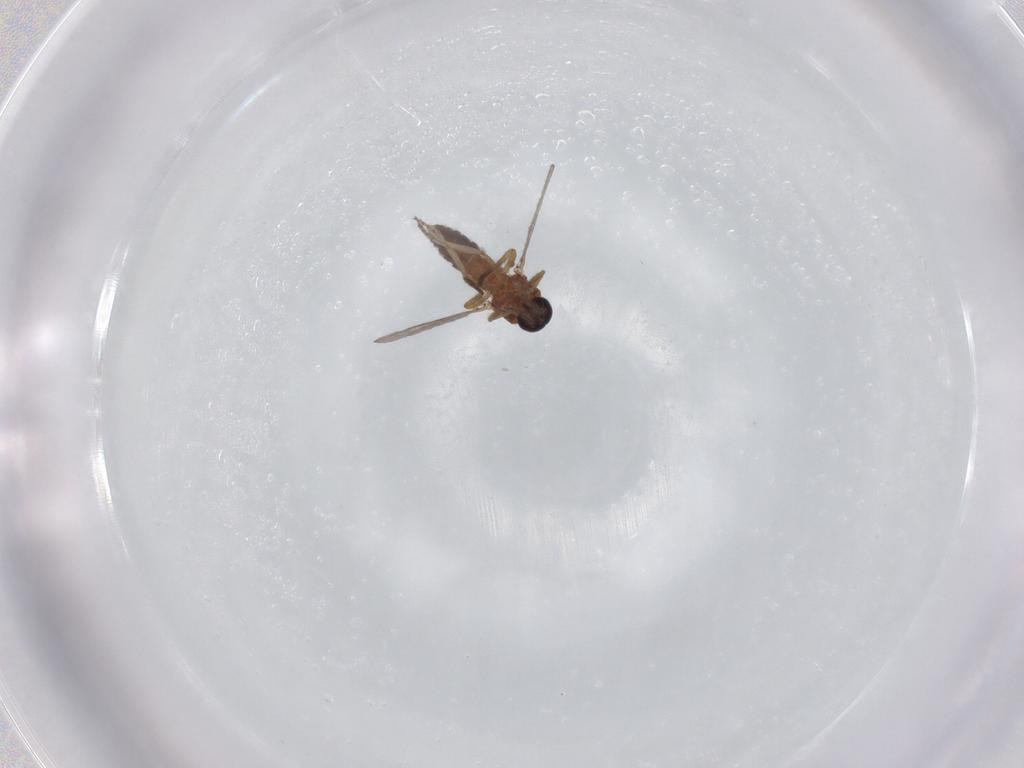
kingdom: Animalia
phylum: Arthropoda
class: Insecta
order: Diptera
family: Ceratopogonidae
